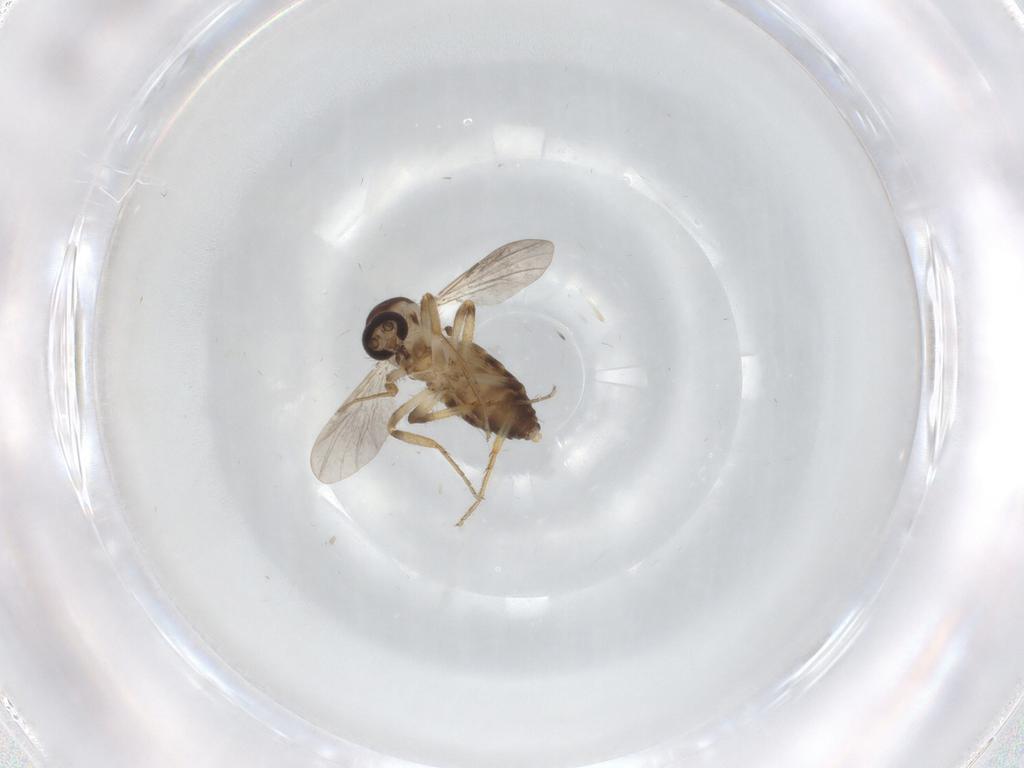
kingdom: Animalia
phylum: Arthropoda
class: Insecta
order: Diptera
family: Ceratopogonidae
